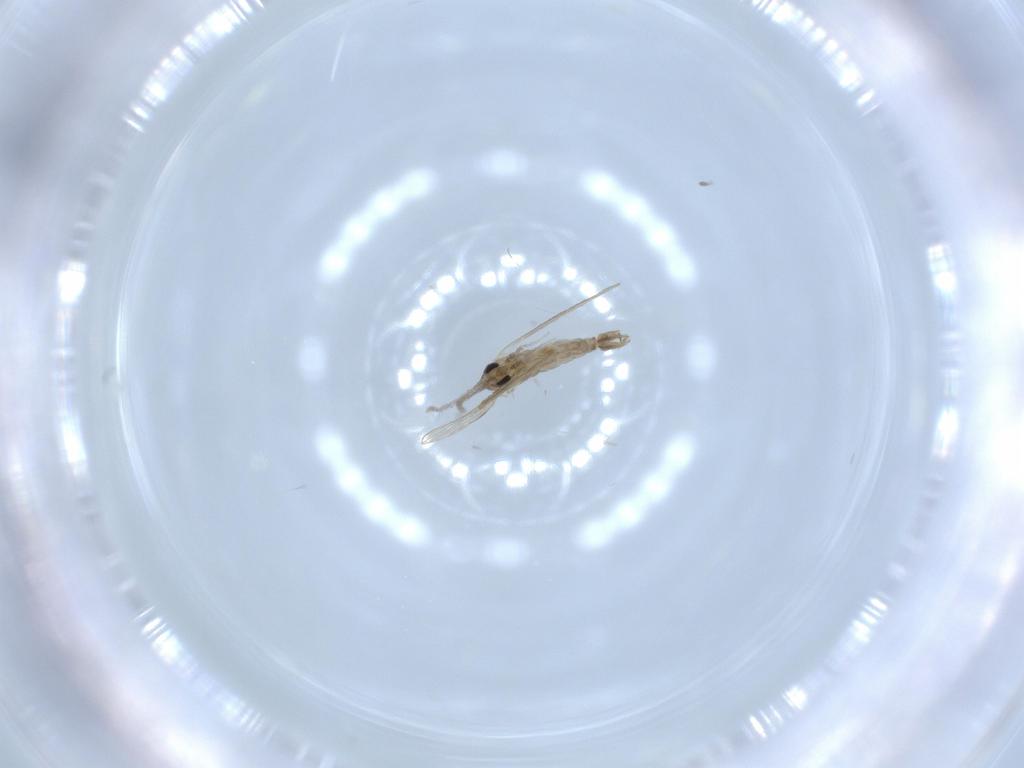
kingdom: Animalia
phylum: Arthropoda
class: Insecta
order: Diptera
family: Psychodidae
